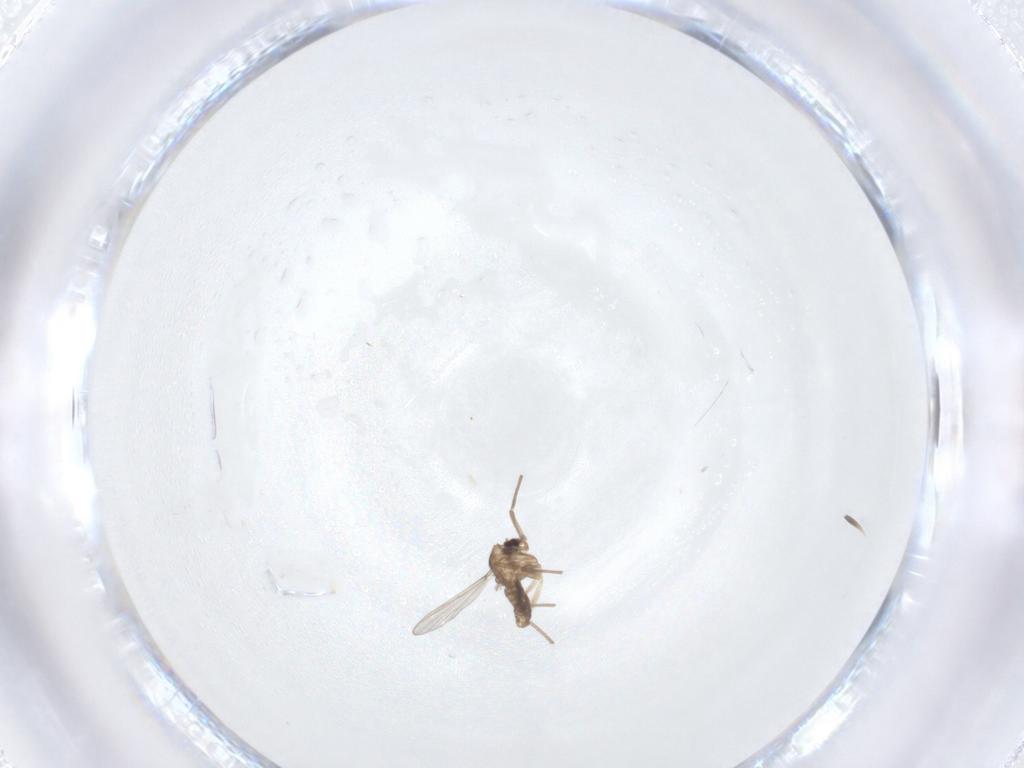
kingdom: Animalia
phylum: Arthropoda
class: Insecta
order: Diptera
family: Chironomidae
